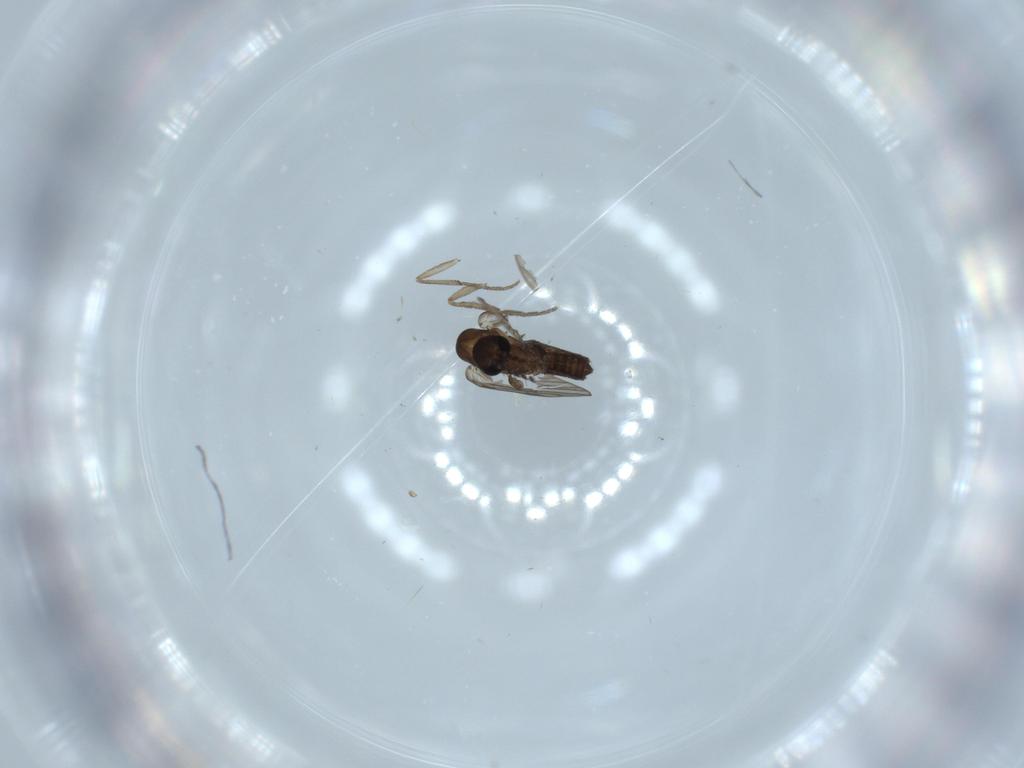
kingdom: Animalia
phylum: Arthropoda
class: Insecta
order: Diptera
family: Psychodidae
